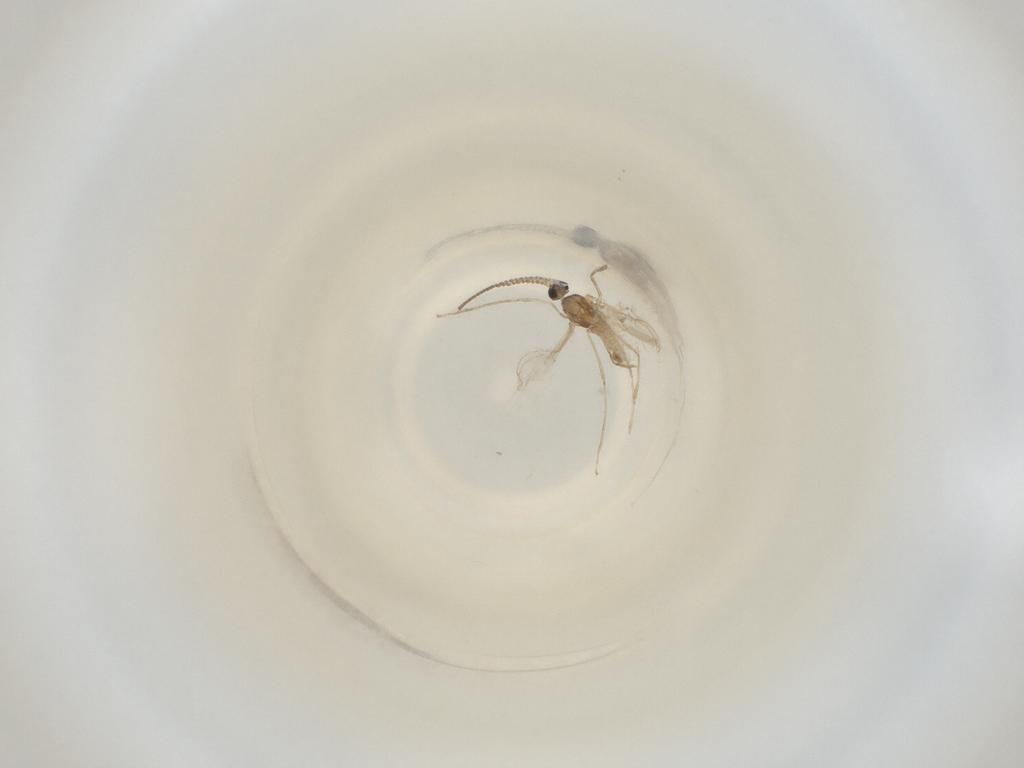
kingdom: Animalia
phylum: Arthropoda
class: Insecta
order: Diptera
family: Cecidomyiidae
